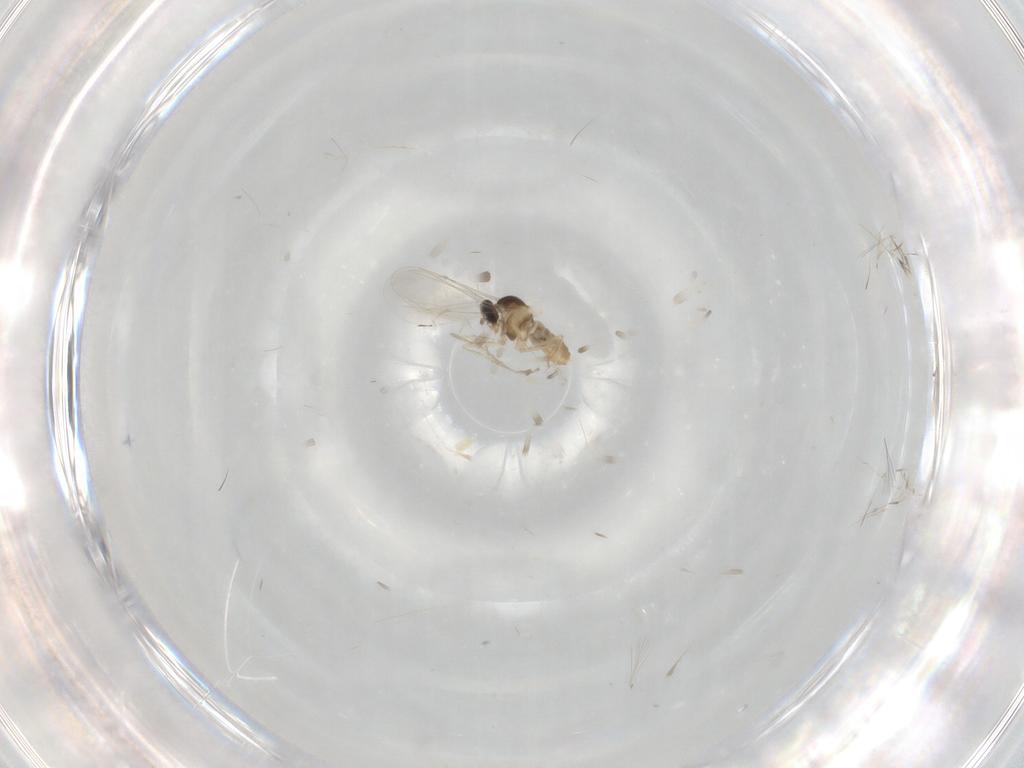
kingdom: Animalia
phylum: Arthropoda
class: Insecta
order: Diptera
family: Cecidomyiidae
